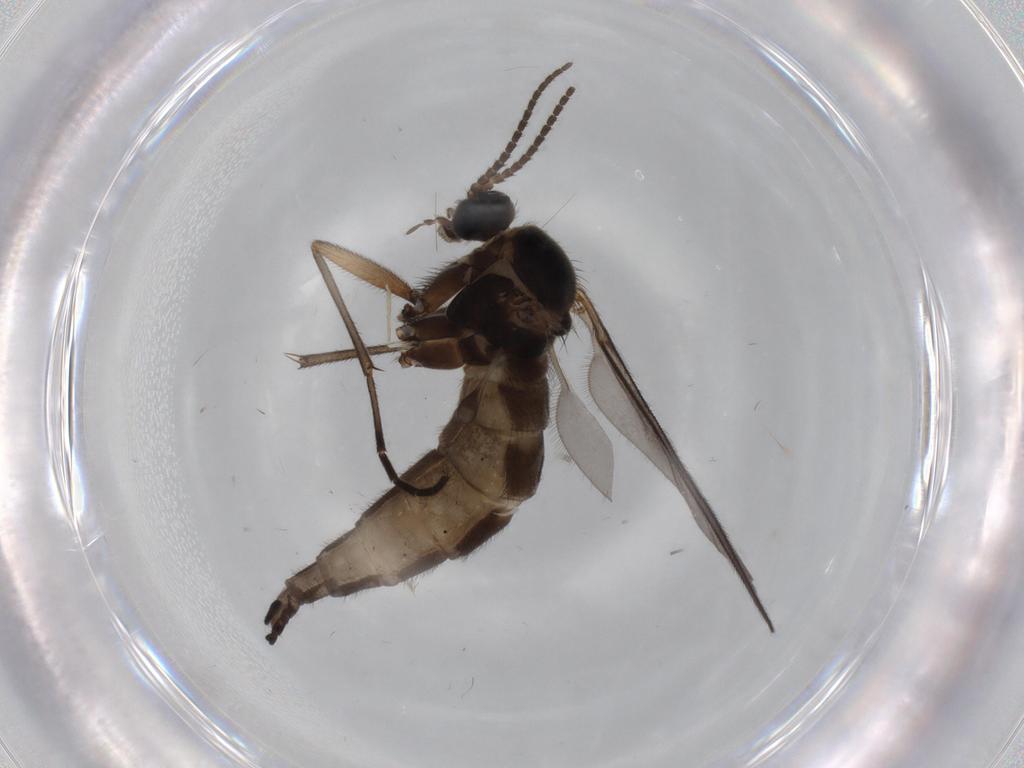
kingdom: Animalia
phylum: Arthropoda
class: Insecta
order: Diptera
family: Sciaridae
